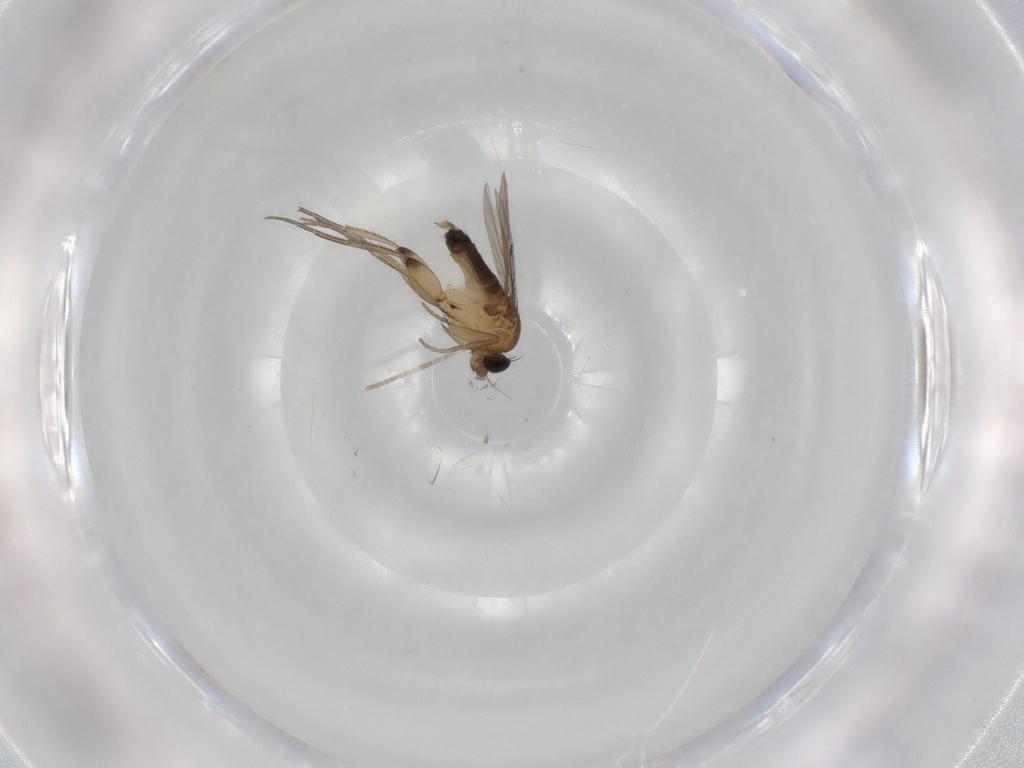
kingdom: Animalia
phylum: Arthropoda
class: Insecta
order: Diptera
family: Phoridae
